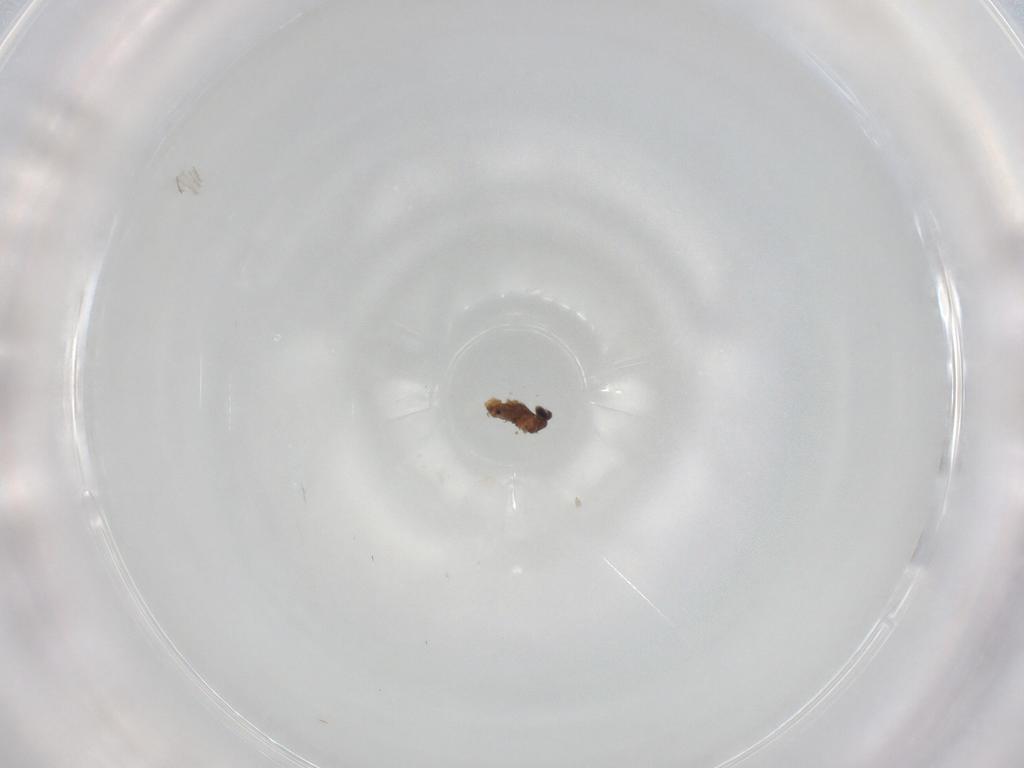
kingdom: Animalia
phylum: Arthropoda
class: Insecta
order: Diptera
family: Cecidomyiidae
